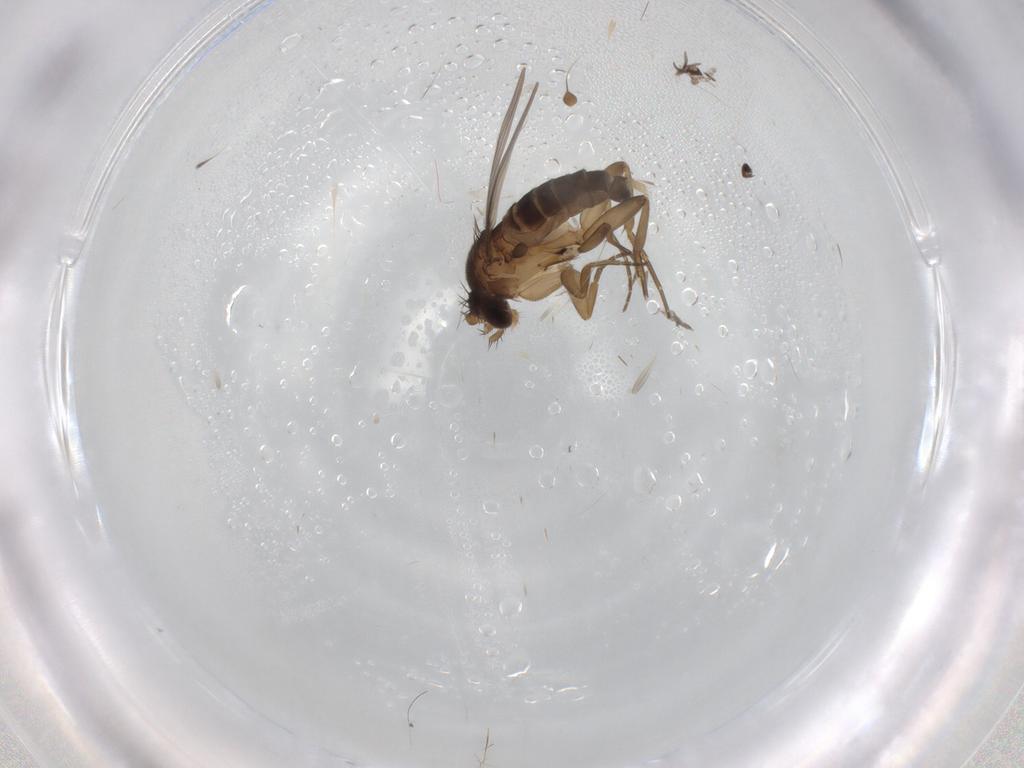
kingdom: Animalia
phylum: Arthropoda
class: Insecta
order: Diptera
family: Phoridae
